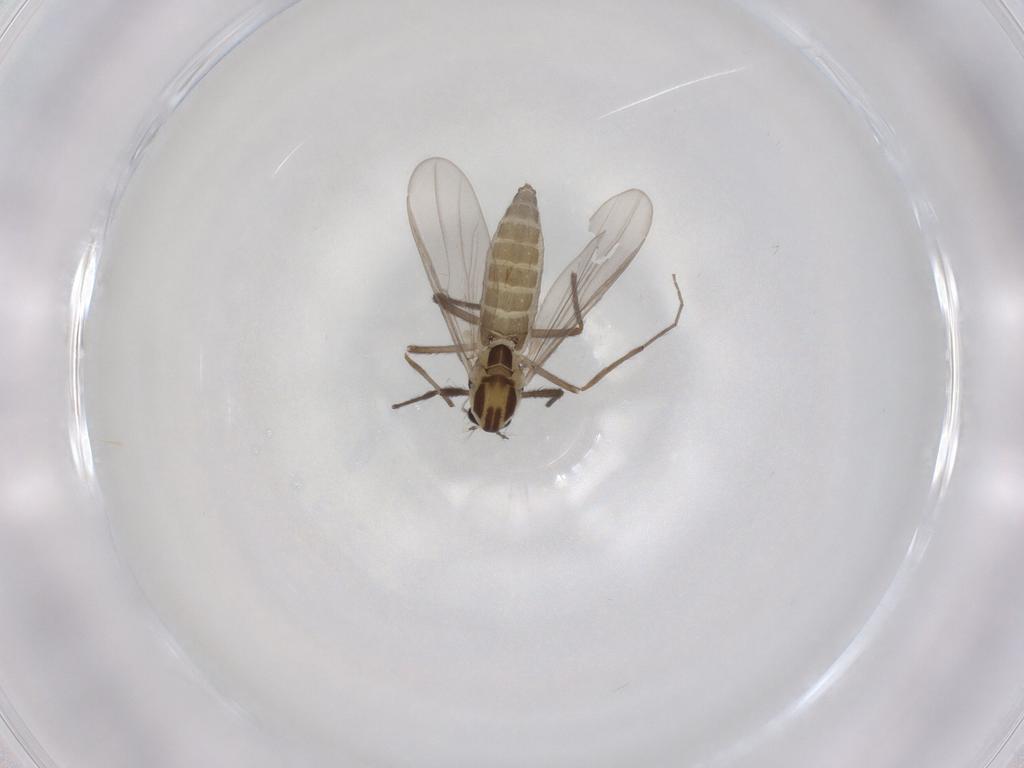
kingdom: Animalia
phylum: Arthropoda
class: Insecta
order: Diptera
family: Chironomidae
